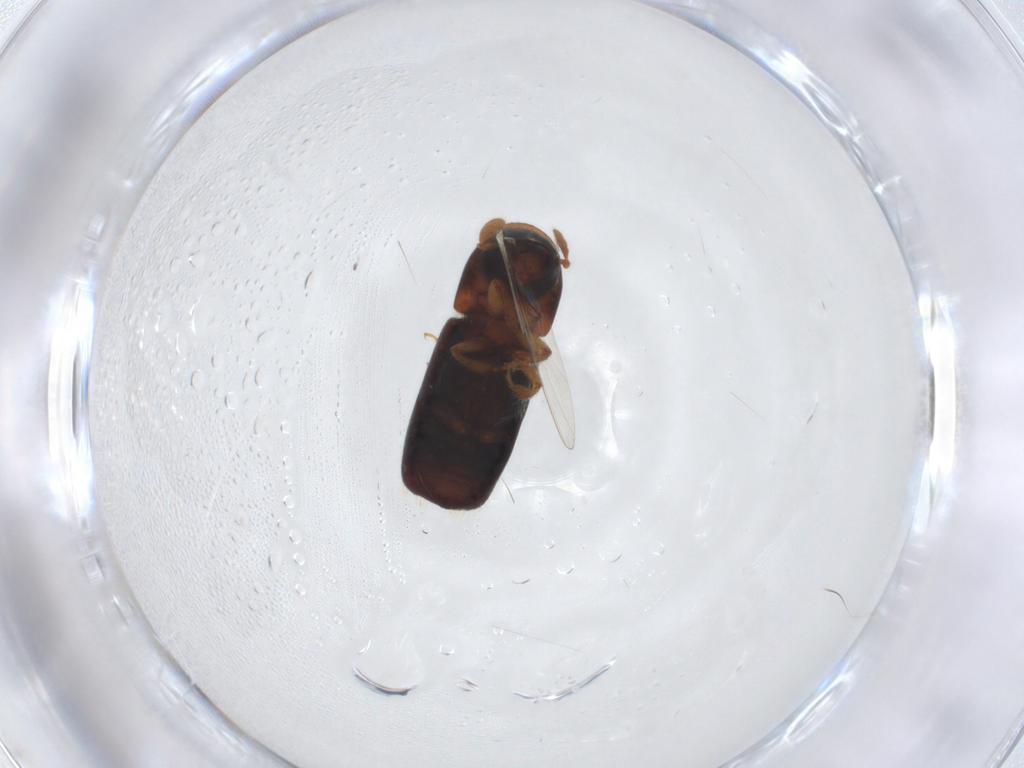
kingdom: Animalia
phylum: Arthropoda
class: Insecta
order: Coleoptera
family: Curculionidae
